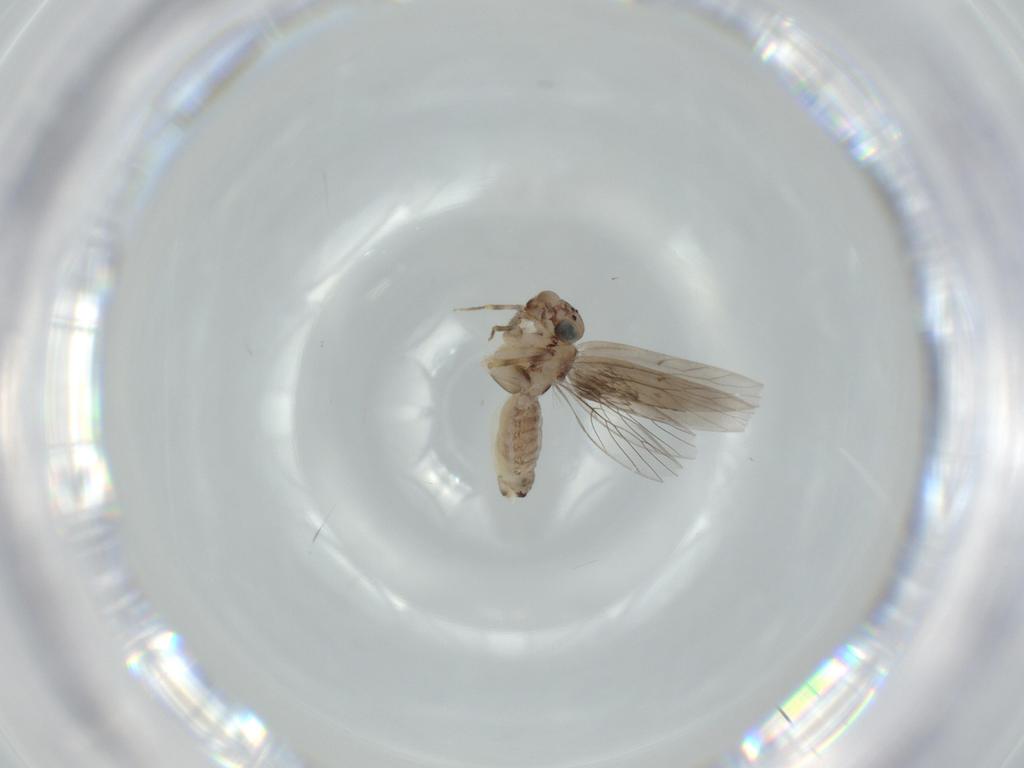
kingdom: Animalia
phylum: Arthropoda
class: Insecta
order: Psocodea
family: Lepidopsocidae
